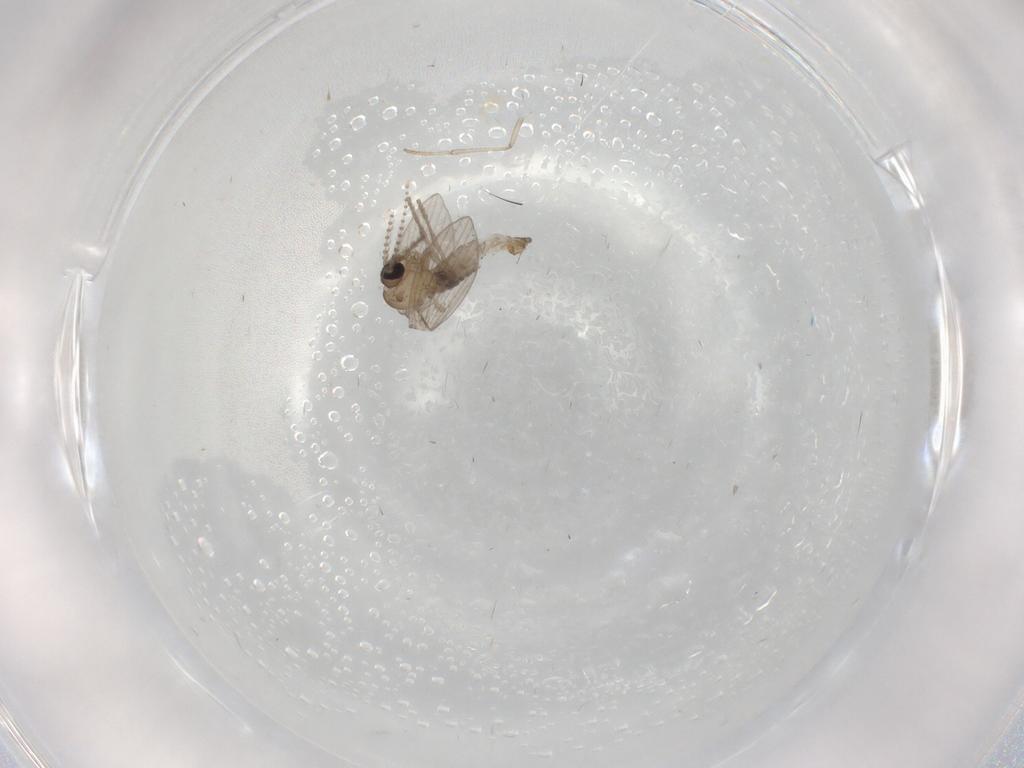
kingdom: Animalia
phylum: Arthropoda
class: Insecta
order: Diptera
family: Psychodidae
